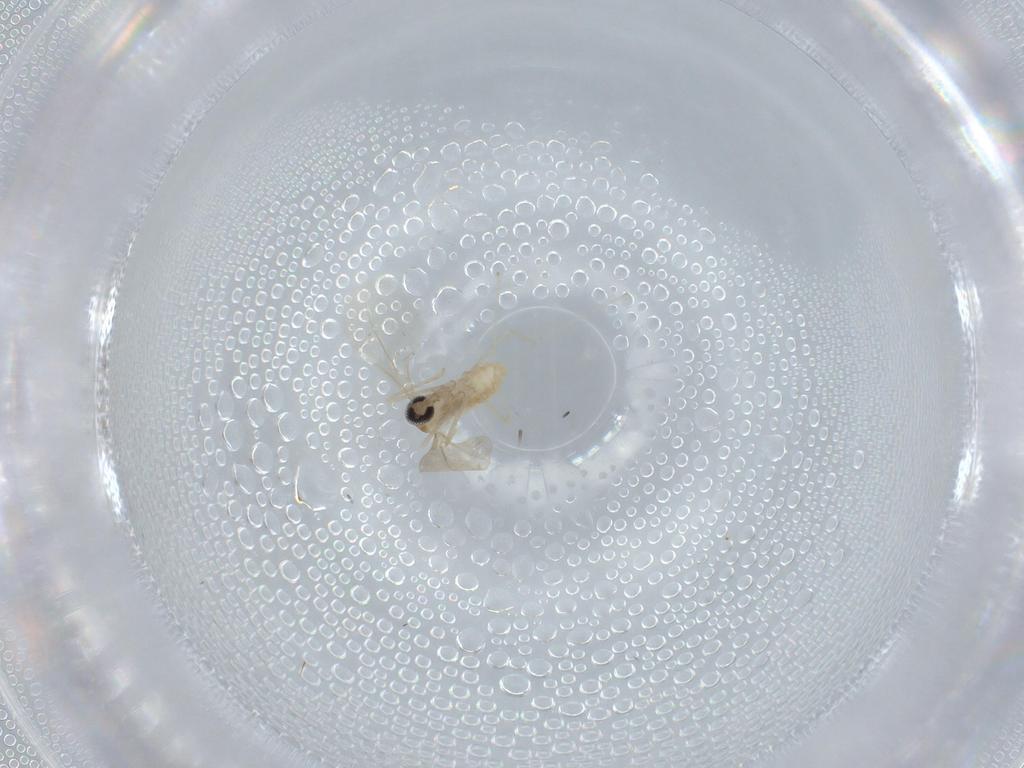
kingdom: Animalia
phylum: Arthropoda
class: Insecta
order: Diptera
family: Cecidomyiidae
